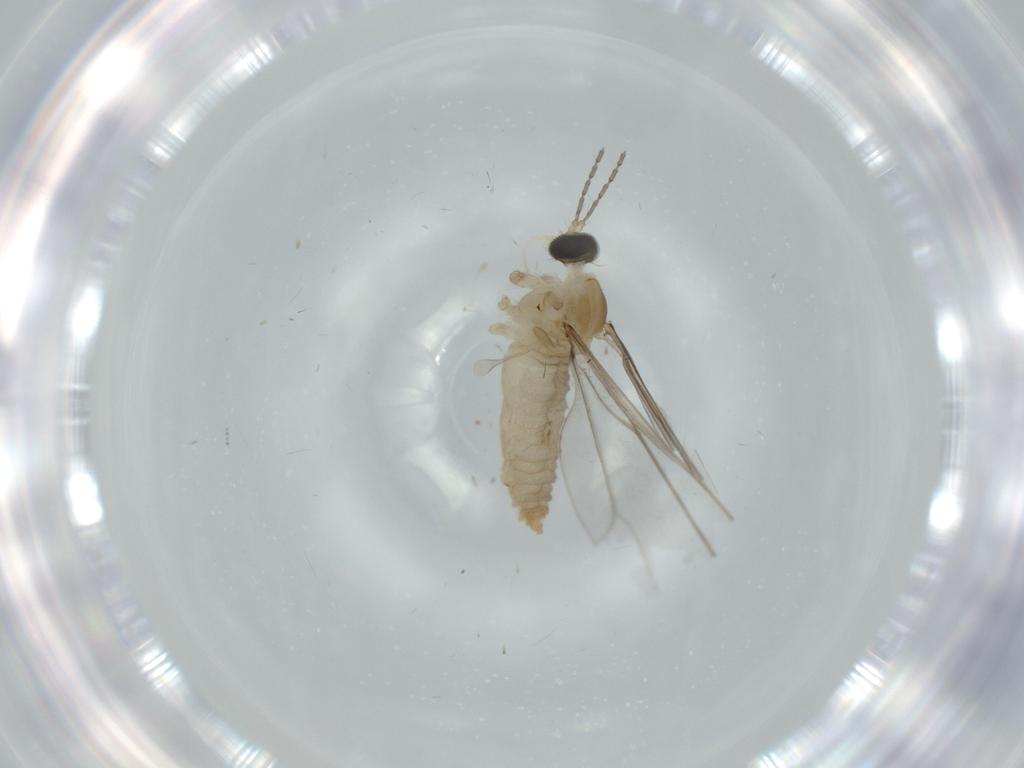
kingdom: Animalia
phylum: Arthropoda
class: Insecta
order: Diptera
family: Cecidomyiidae
